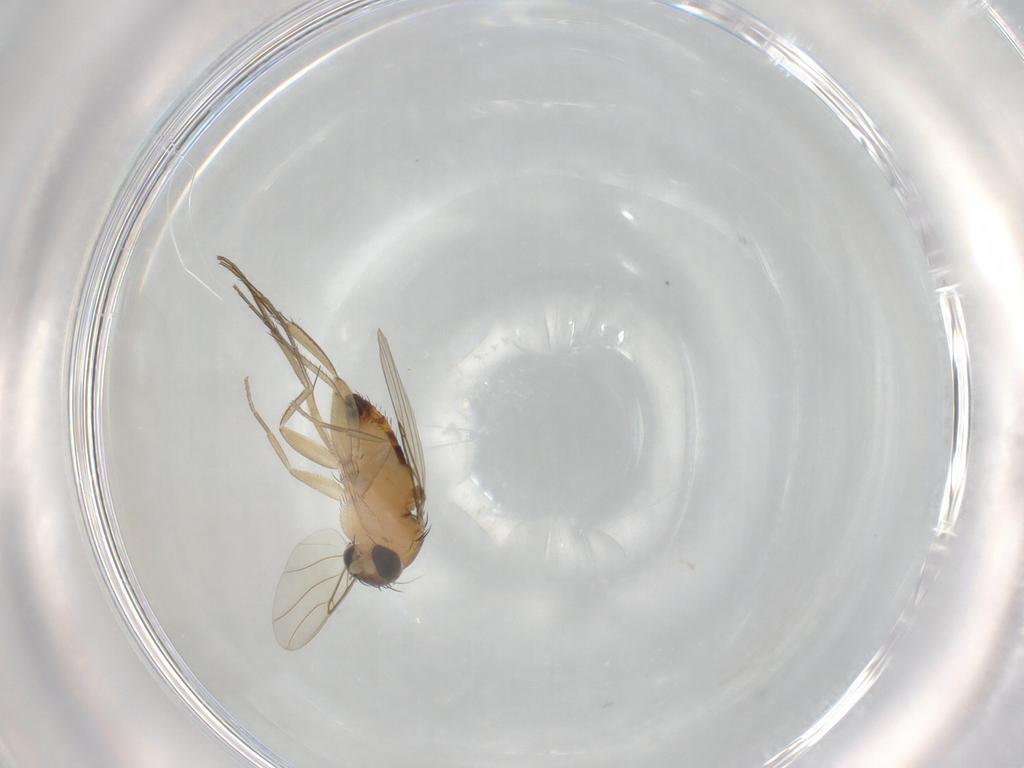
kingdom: Animalia
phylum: Arthropoda
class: Insecta
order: Diptera
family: Phoridae
